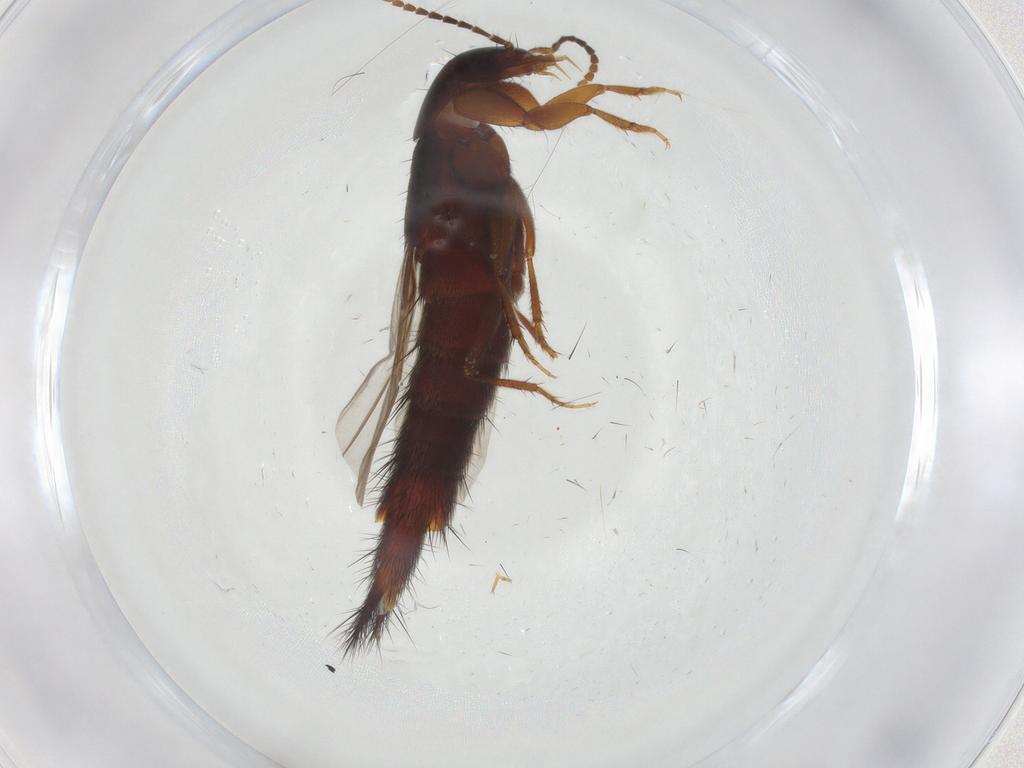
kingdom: Animalia
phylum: Arthropoda
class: Insecta
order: Coleoptera
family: Staphylinidae
